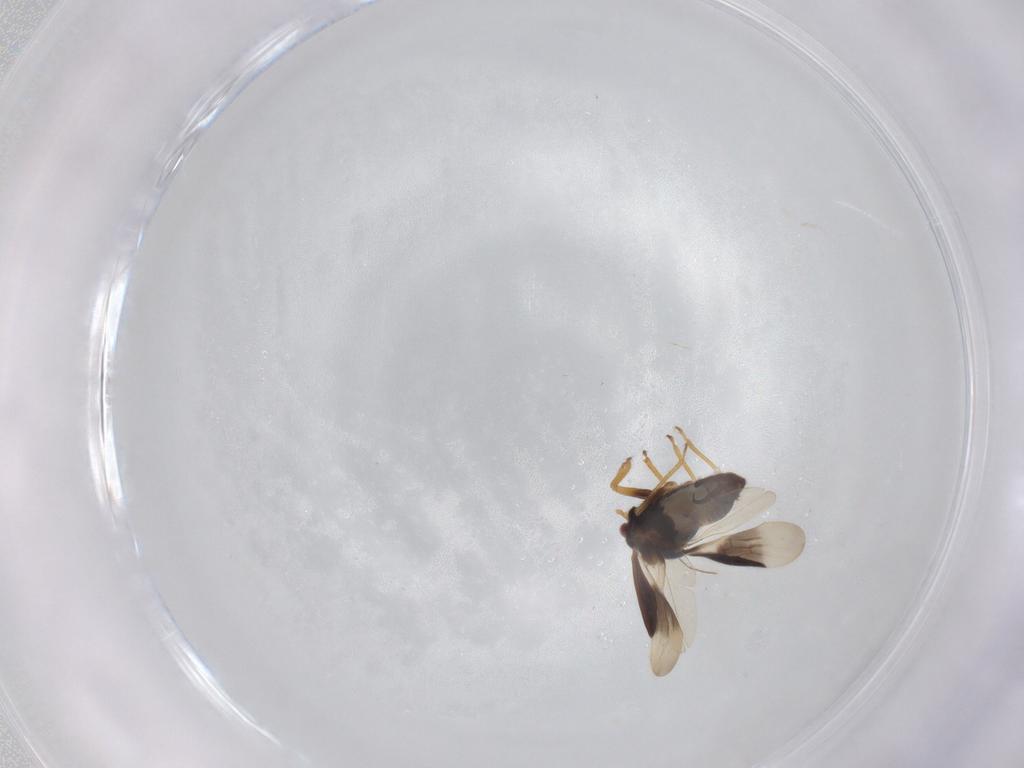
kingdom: Animalia
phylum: Arthropoda
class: Insecta
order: Hemiptera
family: Schizopteridae
